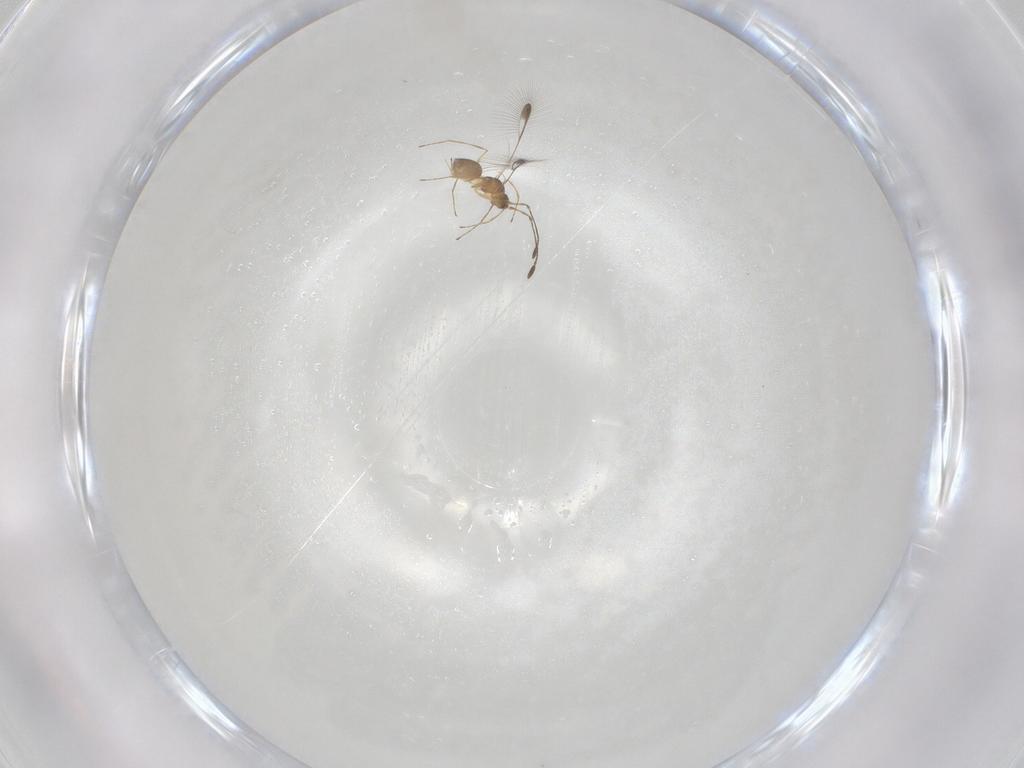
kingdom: Animalia
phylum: Arthropoda
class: Insecta
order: Hymenoptera
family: Mymaridae
